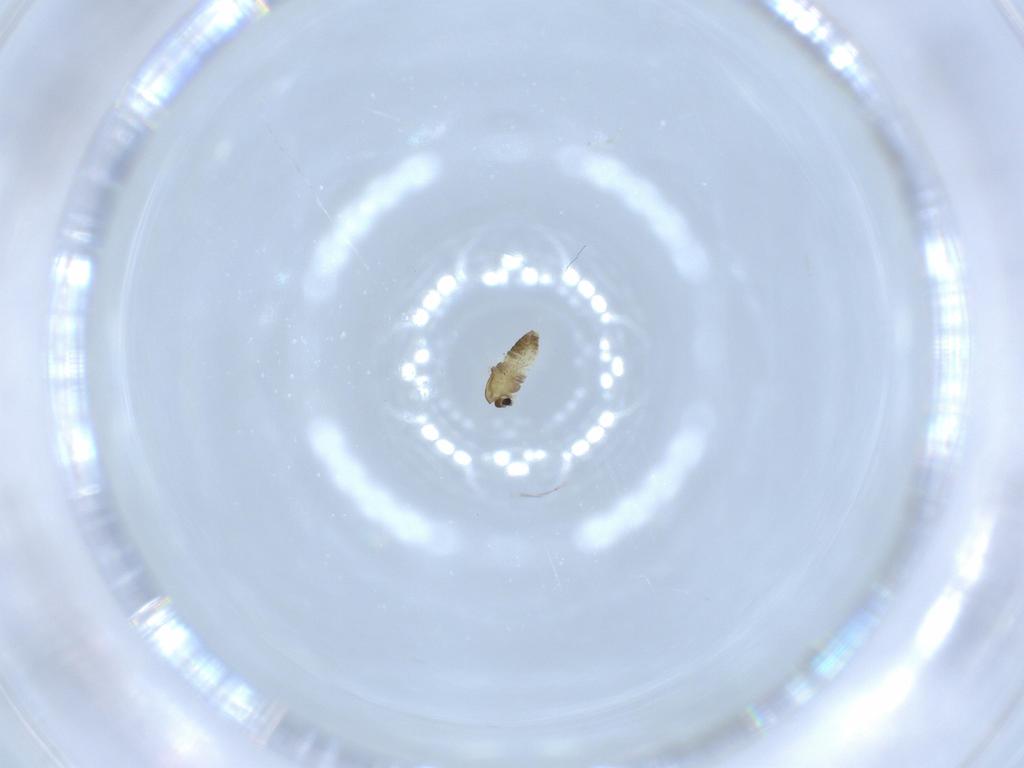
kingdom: Animalia
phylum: Arthropoda
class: Insecta
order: Diptera
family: Chironomidae
